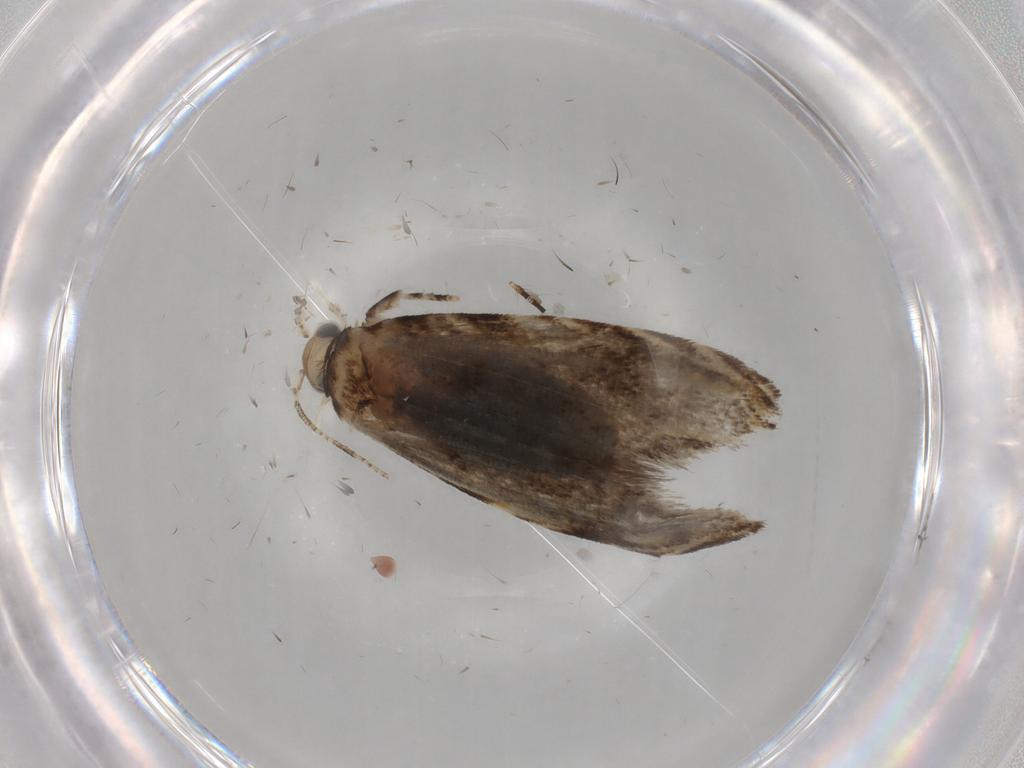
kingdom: Animalia
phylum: Arthropoda
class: Insecta
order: Lepidoptera
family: Tineidae
